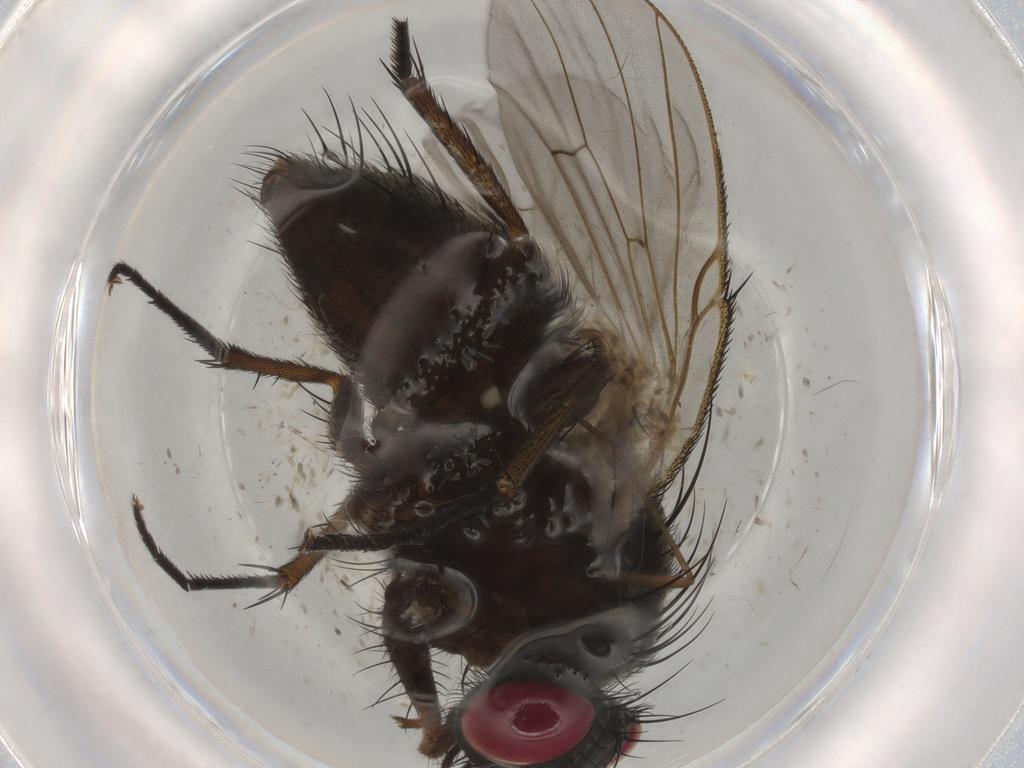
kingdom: Animalia
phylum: Arthropoda
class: Insecta
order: Diptera
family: Muscidae
